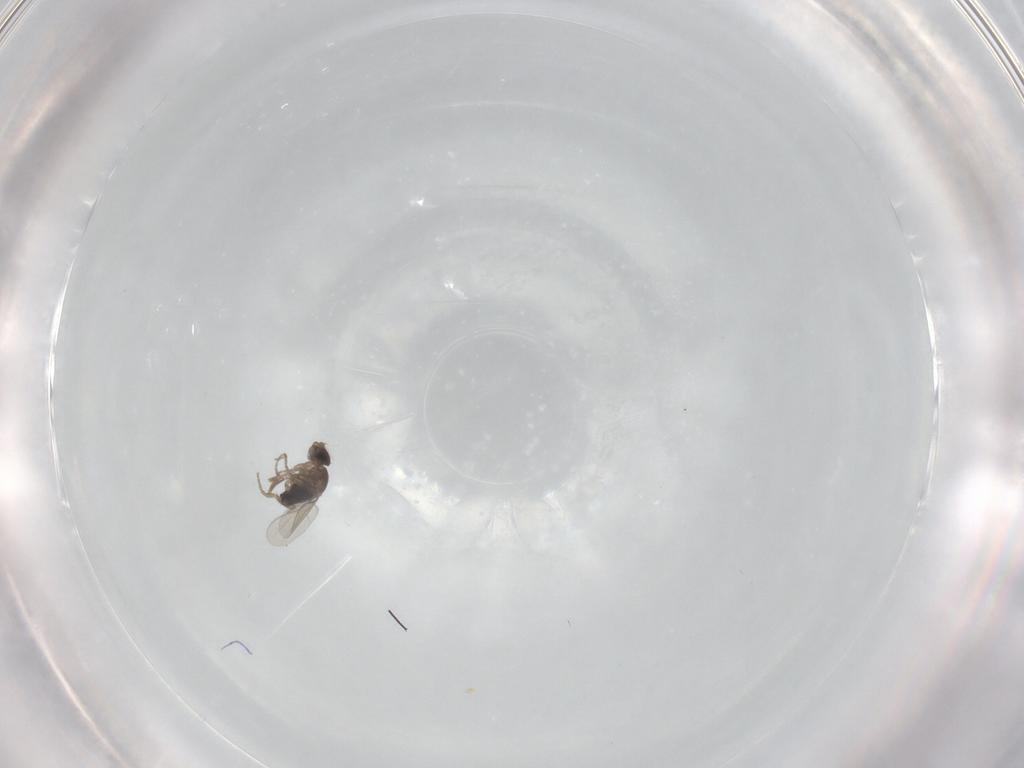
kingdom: Animalia
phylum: Arthropoda
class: Insecta
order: Diptera
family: Phoridae
